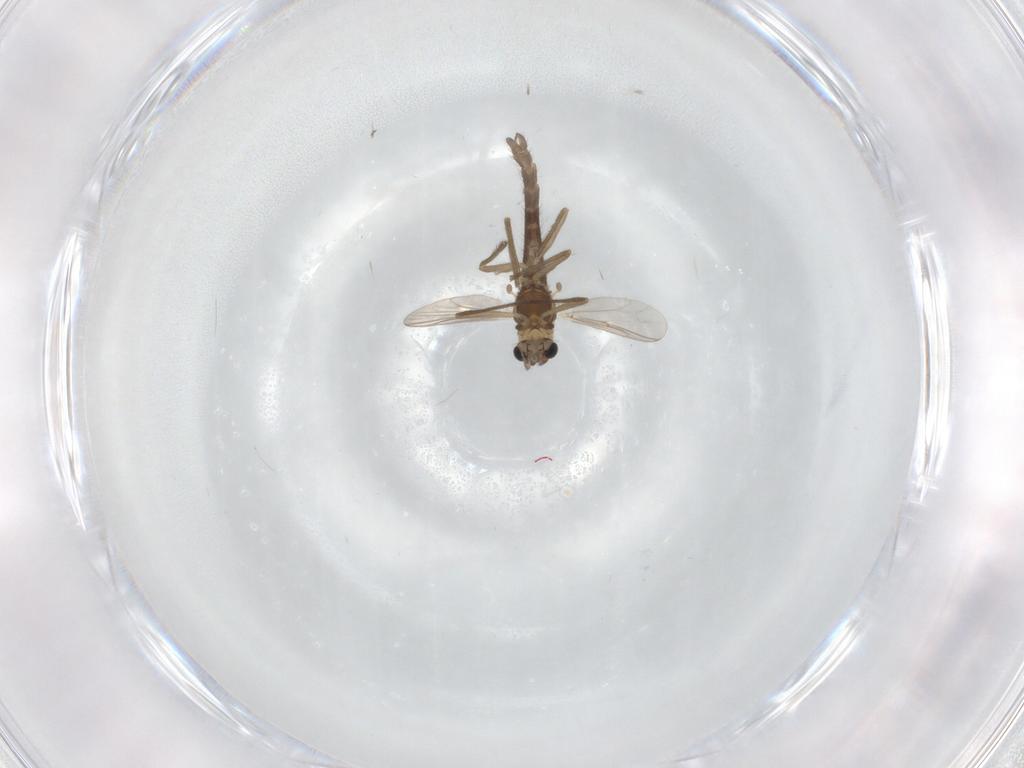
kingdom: Animalia
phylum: Arthropoda
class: Insecta
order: Diptera
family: Chironomidae
